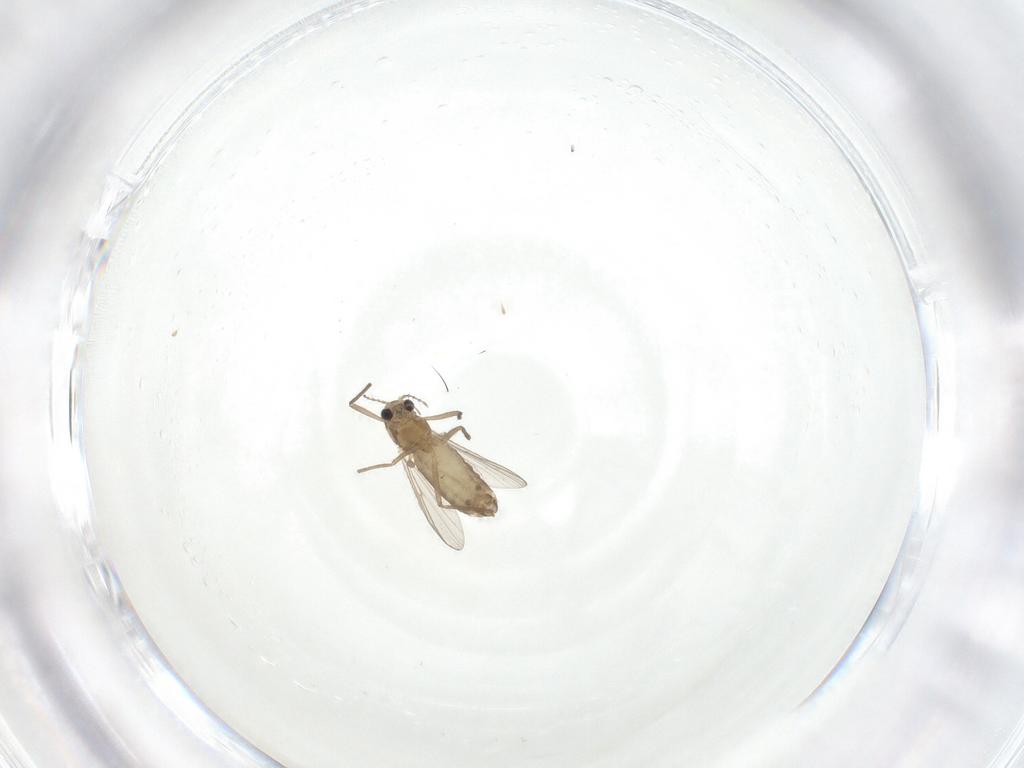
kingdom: Animalia
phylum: Arthropoda
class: Insecta
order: Diptera
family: Chironomidae
